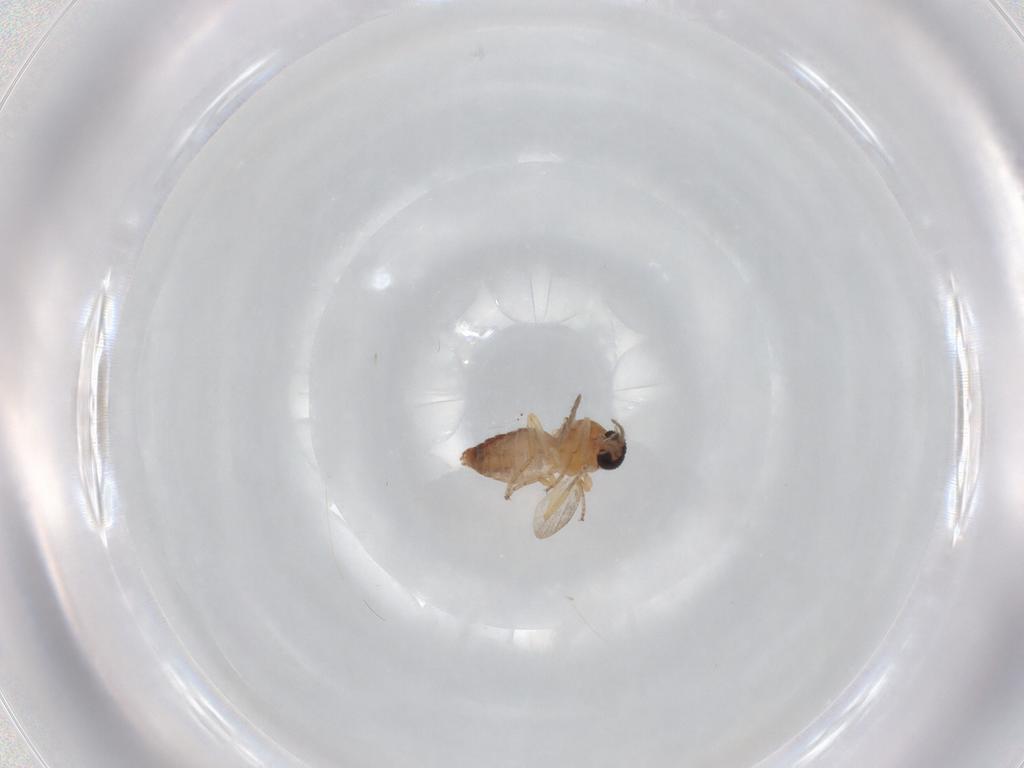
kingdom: Animalia
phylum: Arthropoda
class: Insecta
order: Diptera
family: Ceratopogonidae
